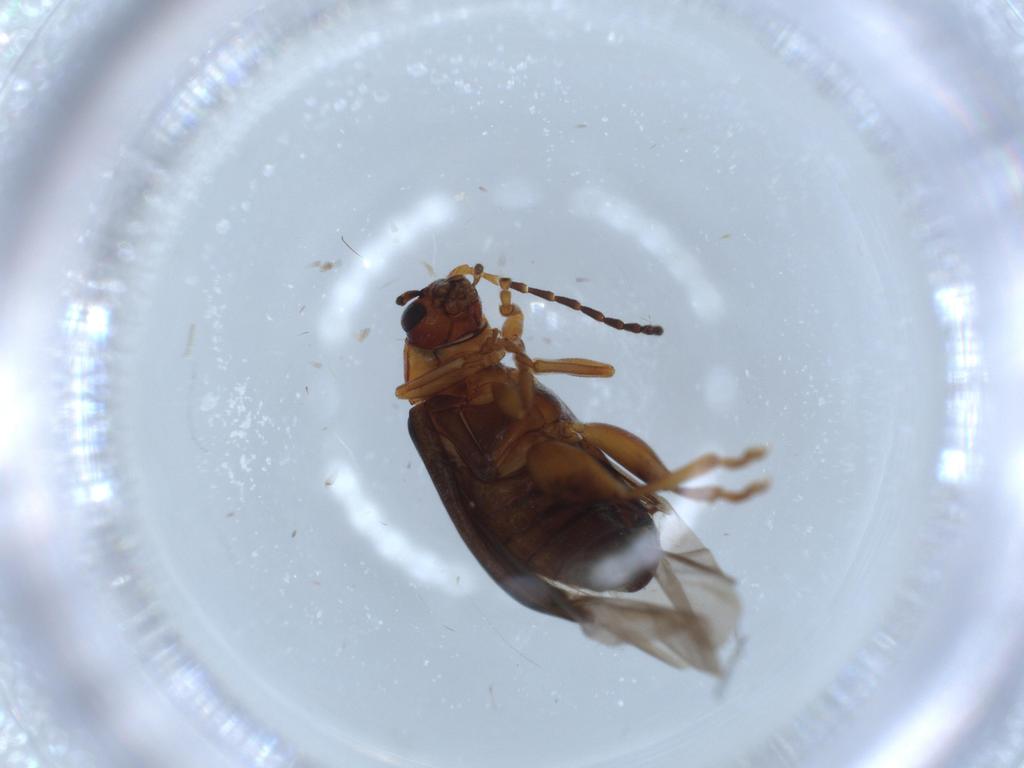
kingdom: Animalia
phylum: Arthropoda
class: Insecta
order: Coleoptera
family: Chrysomelidae
